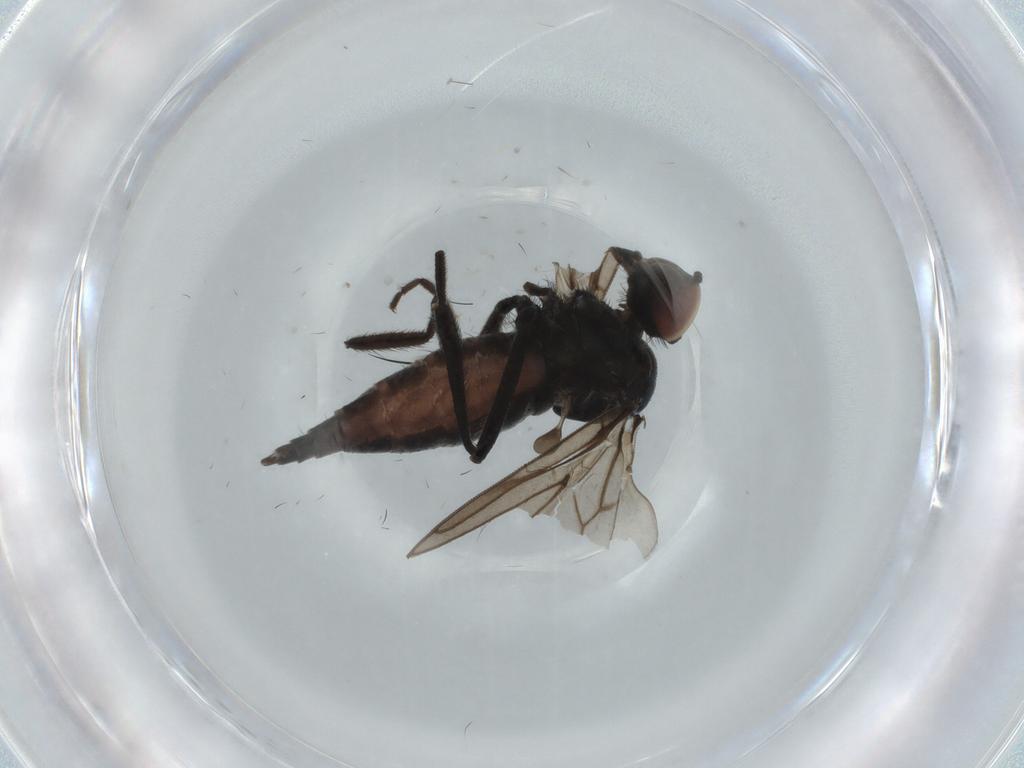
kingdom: Animalia
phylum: Arthropoda
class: Insecta
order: Diptera
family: Hybotidae
